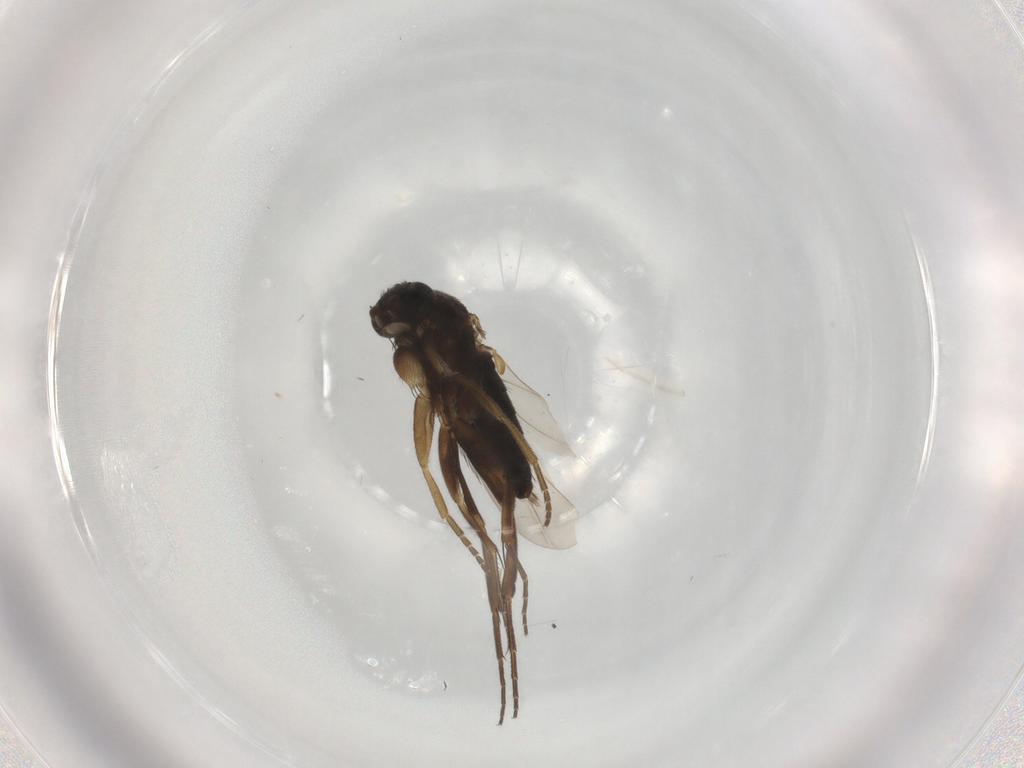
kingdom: Animalia
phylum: Arthropoda
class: Insecta
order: Diptera
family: Phoridae
